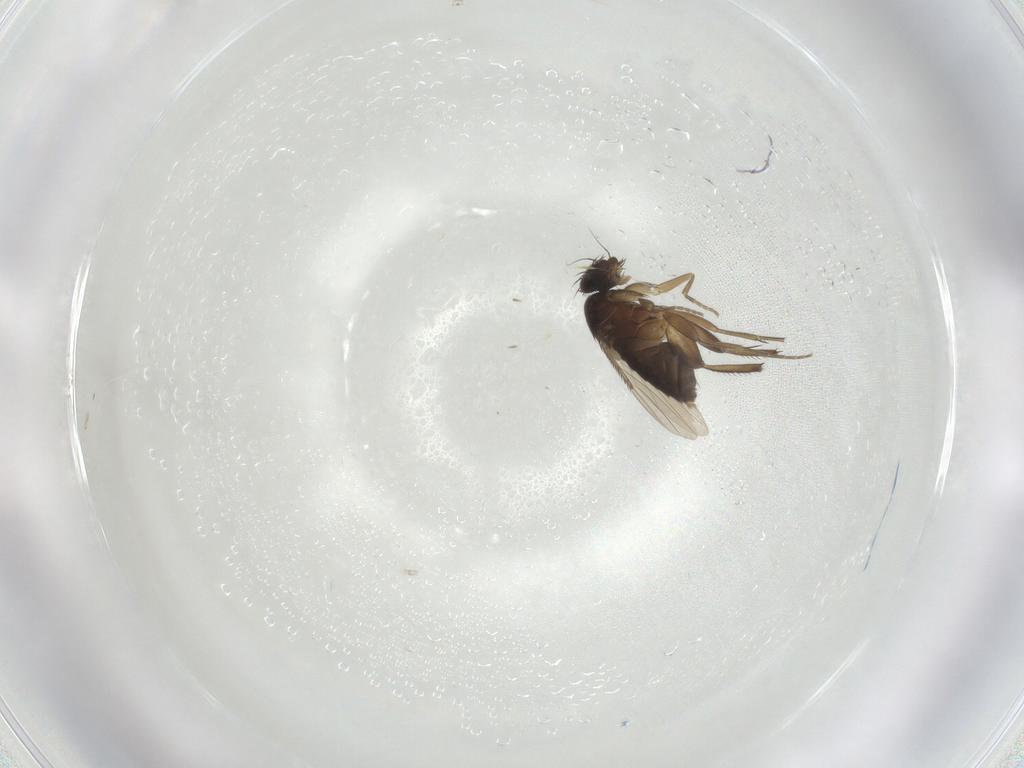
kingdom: Animalia
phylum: Arthropoda
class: Insecta
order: Diptera
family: Phoridae
